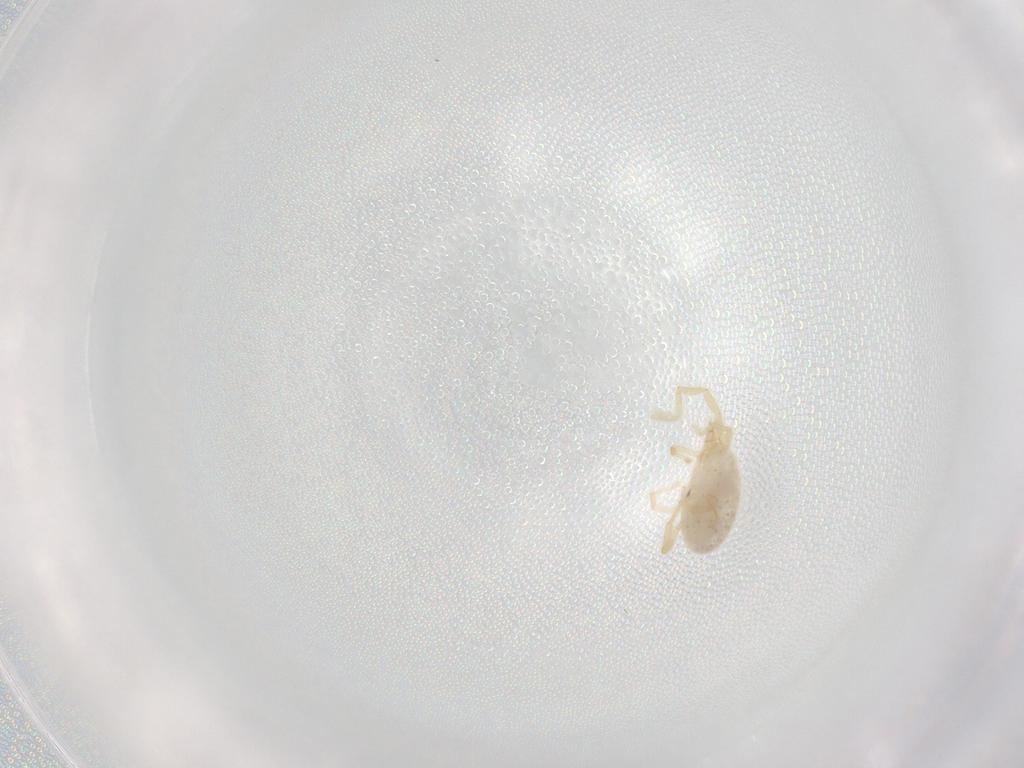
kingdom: Animalia
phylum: Arthropoda
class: Arachnida
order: Trombidiformes
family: Erythraeidae
